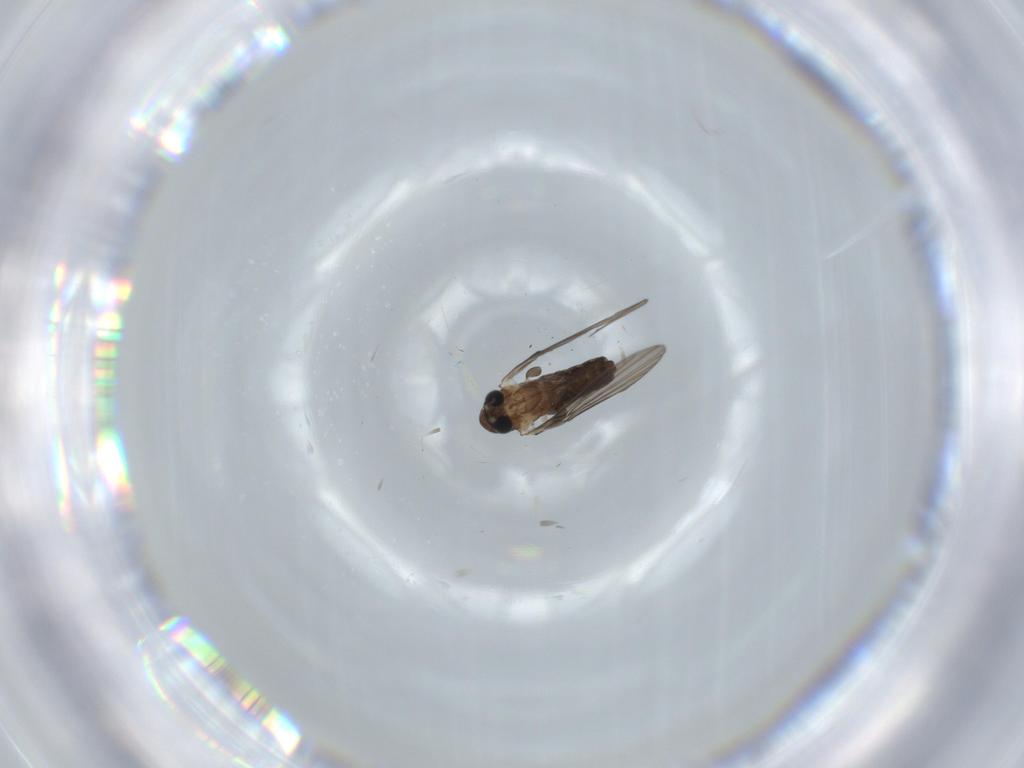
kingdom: Animalia
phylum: Arthropoda
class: Insecta
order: Diptera
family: Psychodidae
